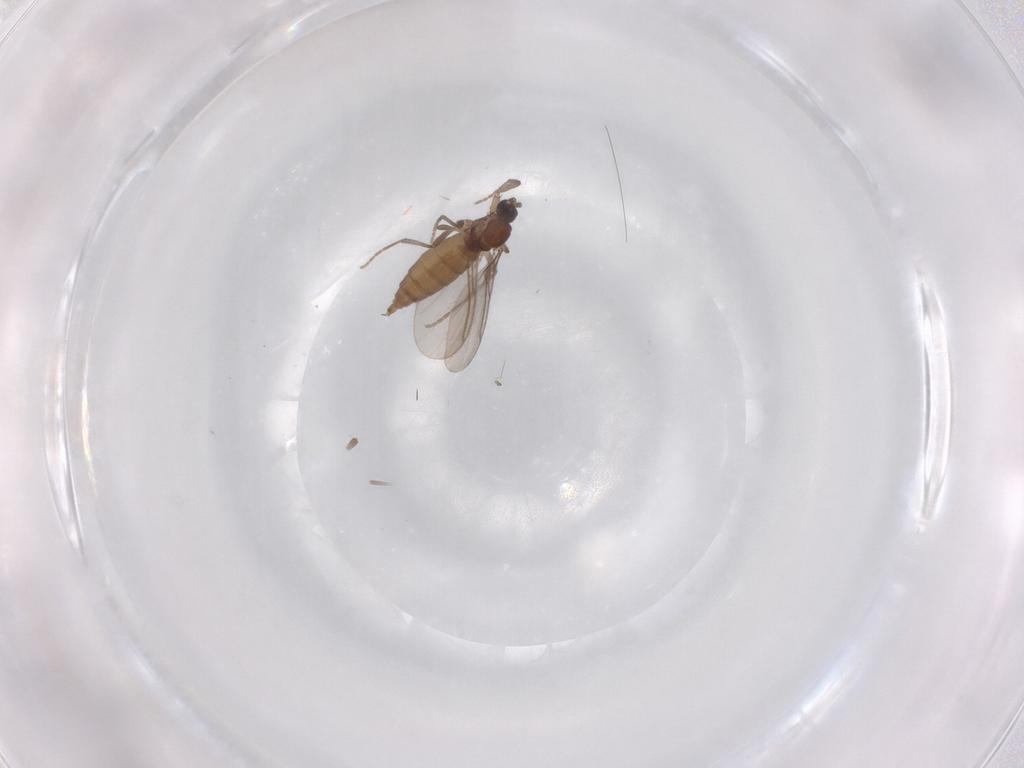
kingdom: Animalia
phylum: Arthropoda
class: Insecta
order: Diptera
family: Sciaridae
